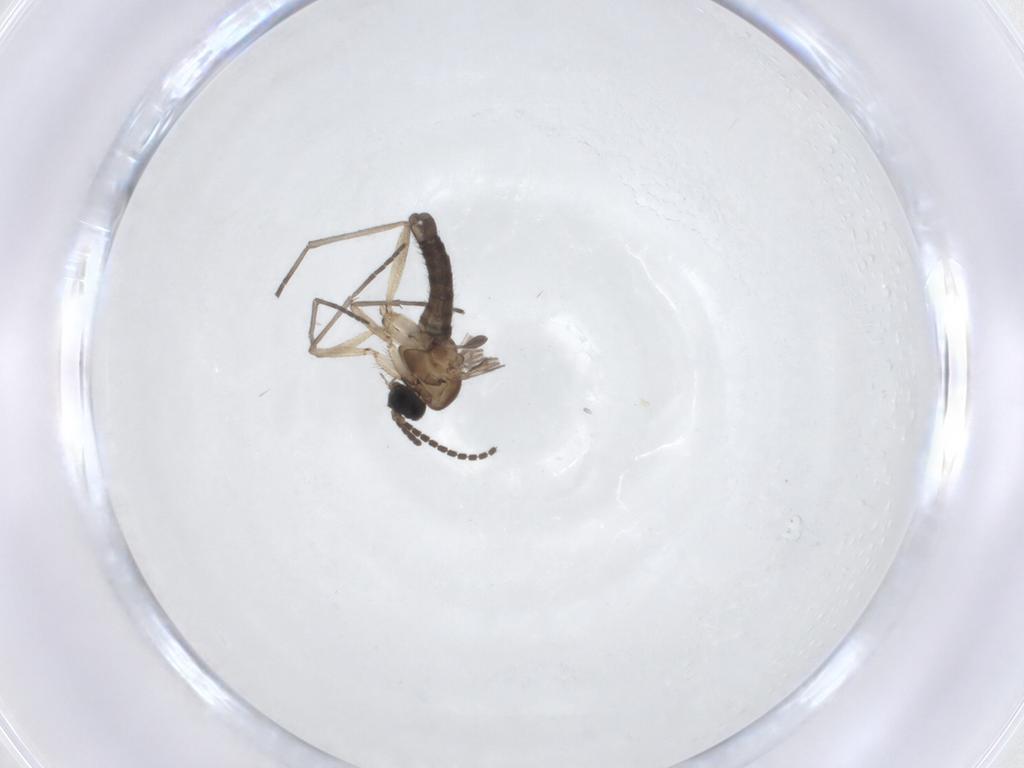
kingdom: Animalia
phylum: Arthropoda
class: Insecta
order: Diptera
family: Sciaridae
